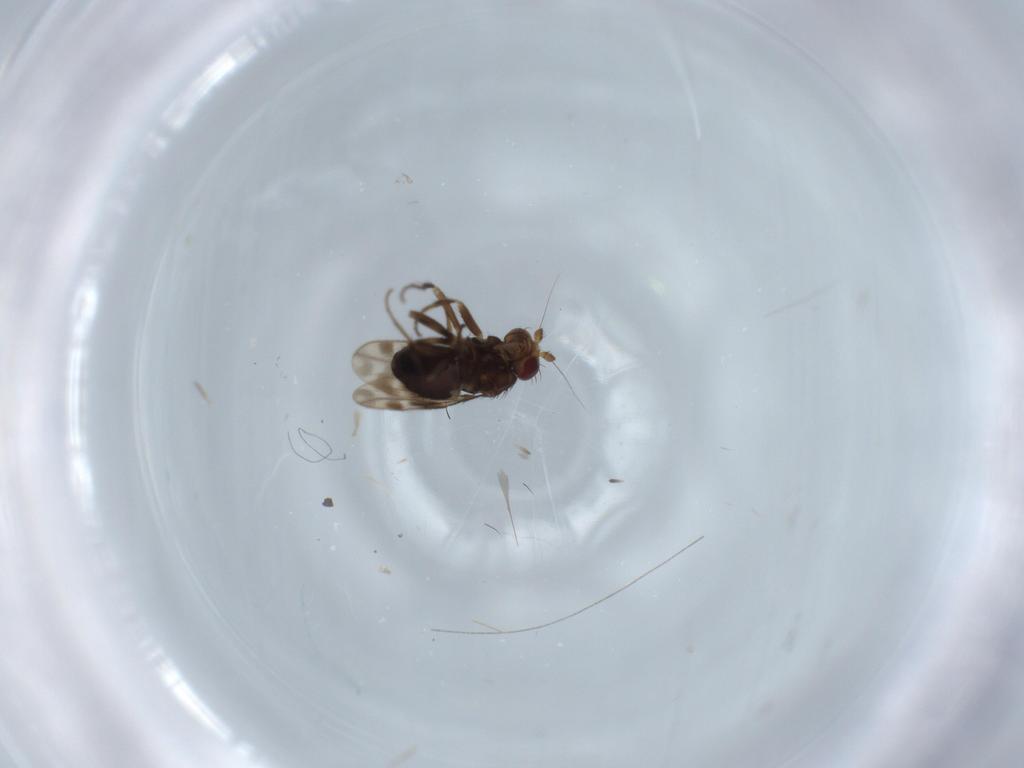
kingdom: Animalia
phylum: Arthropoda
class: Insecta
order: Diptera
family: Sphaeroceridae
